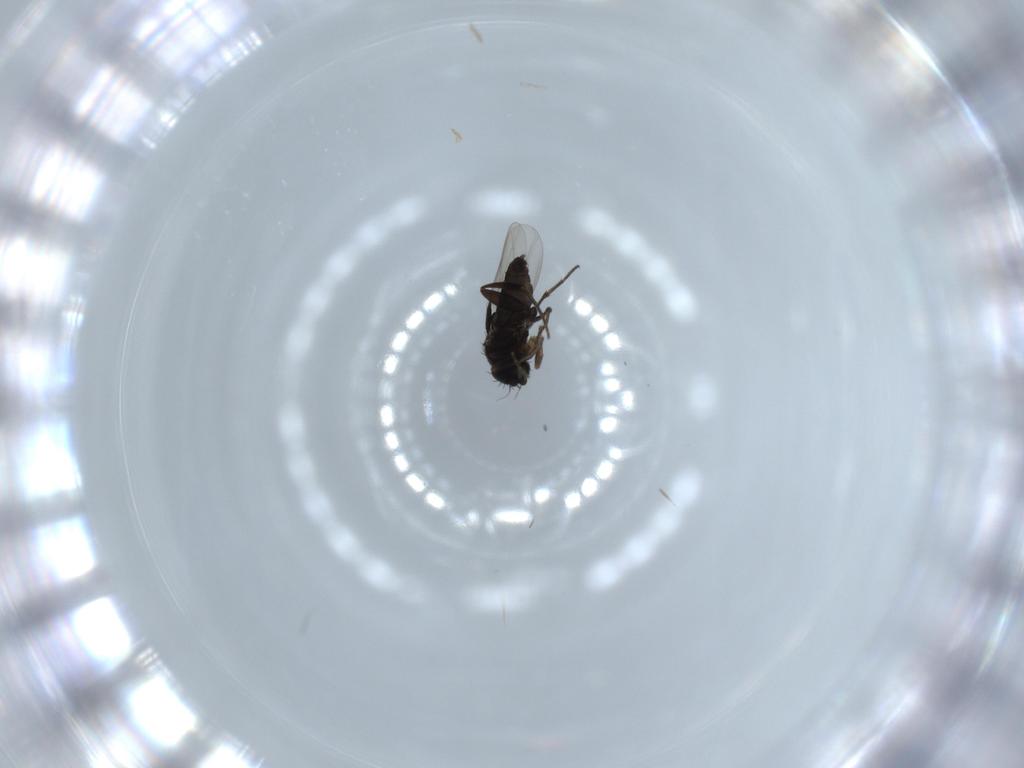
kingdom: Animalia
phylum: Arthropoda
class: Insecta
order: Diptera
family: Phoridae
